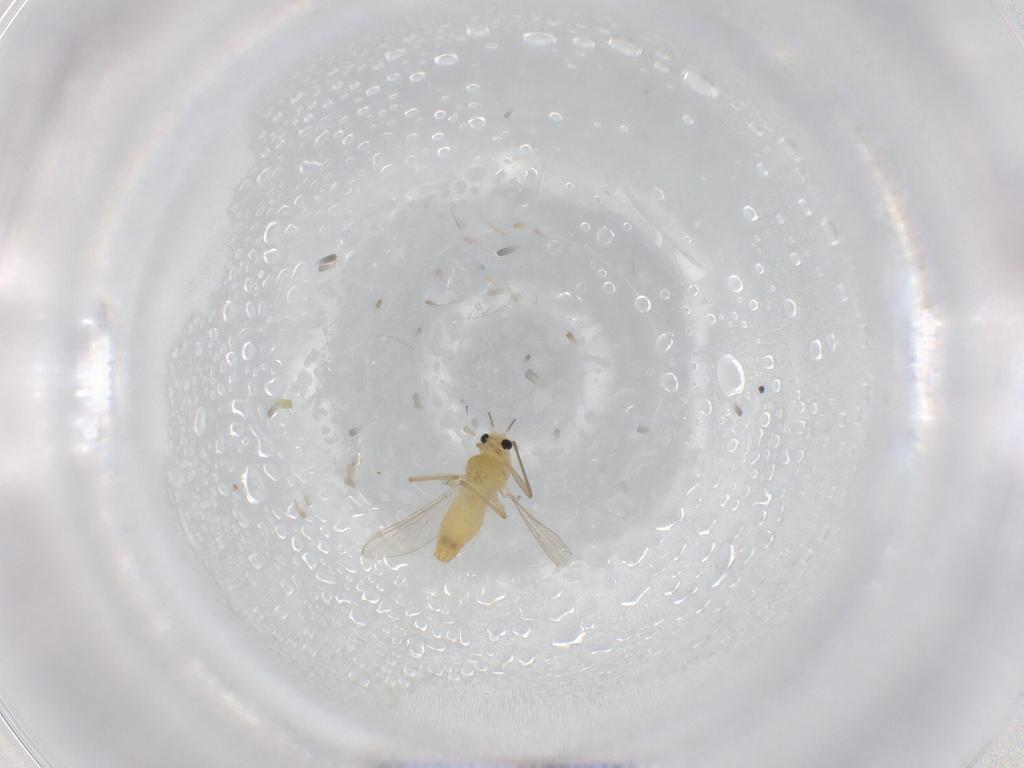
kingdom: Animalia
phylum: Arthropoda
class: Insecta
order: Diptera
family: Chironomidae
